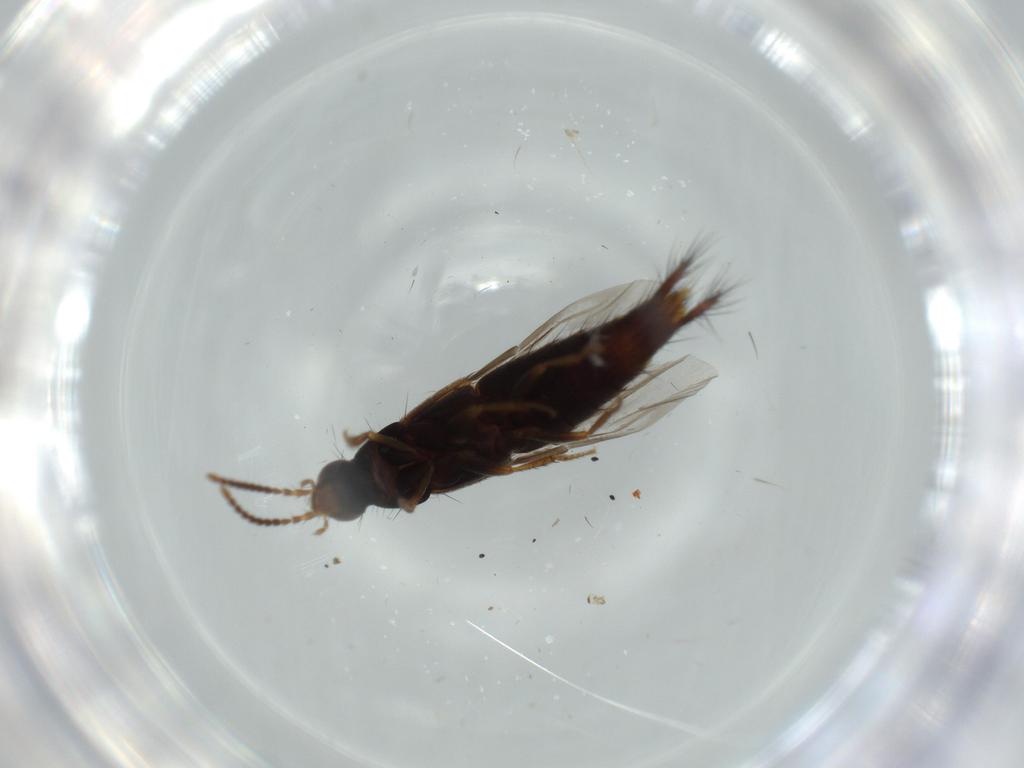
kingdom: Animalia
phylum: Arthropoda
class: Insecta
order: Coleoptera
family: Staphylinidae
